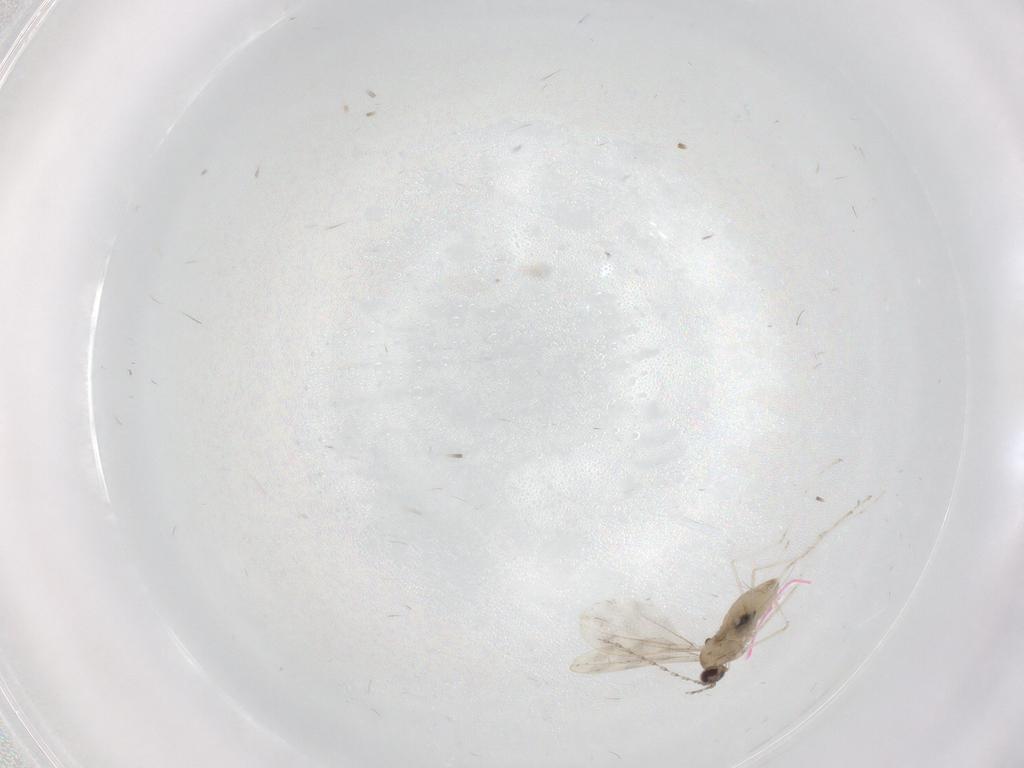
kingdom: Animalia
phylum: Arthropoda
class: Insecta
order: Diptera
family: Cecidomyiidae
